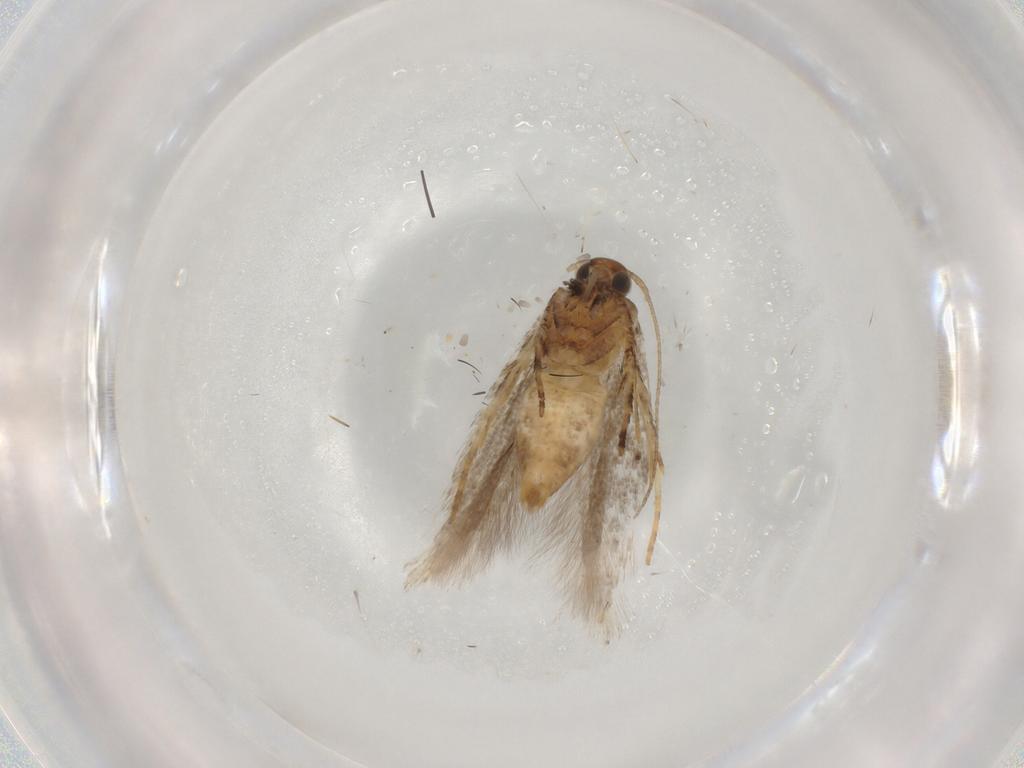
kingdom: Animalia
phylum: Arthropoda
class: Insecta
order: Lepidoptera
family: Gelechiidae
